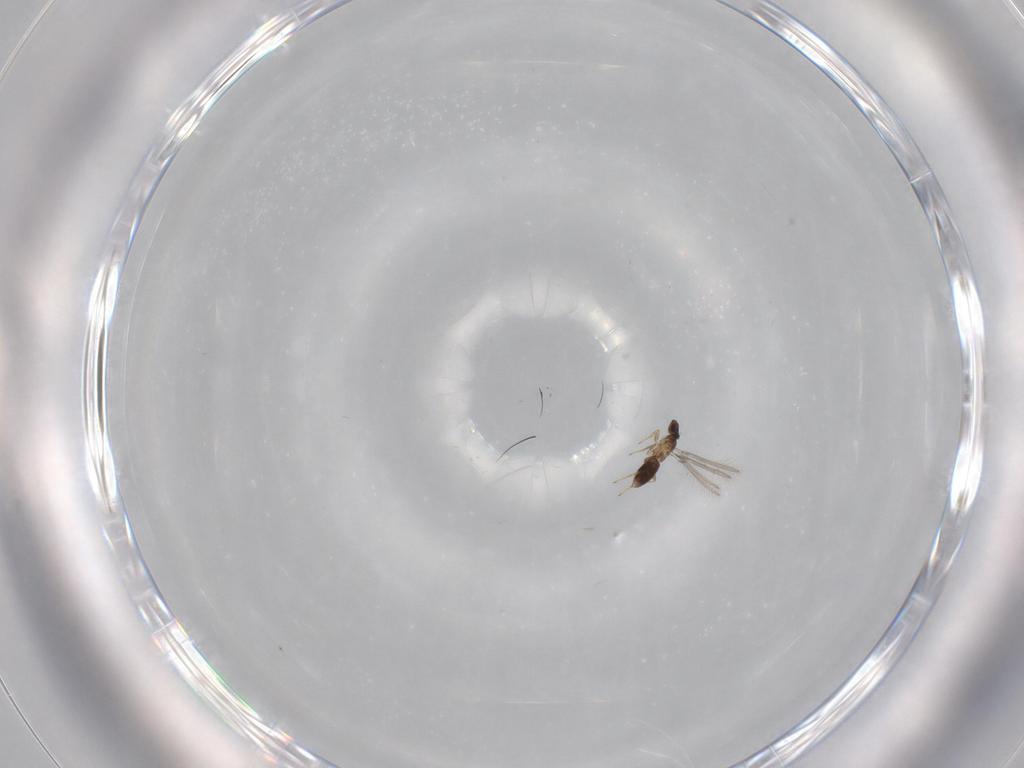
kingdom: Animalia
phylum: Arthropoda
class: Insecta
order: Hymenoptera
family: Mymaridae
